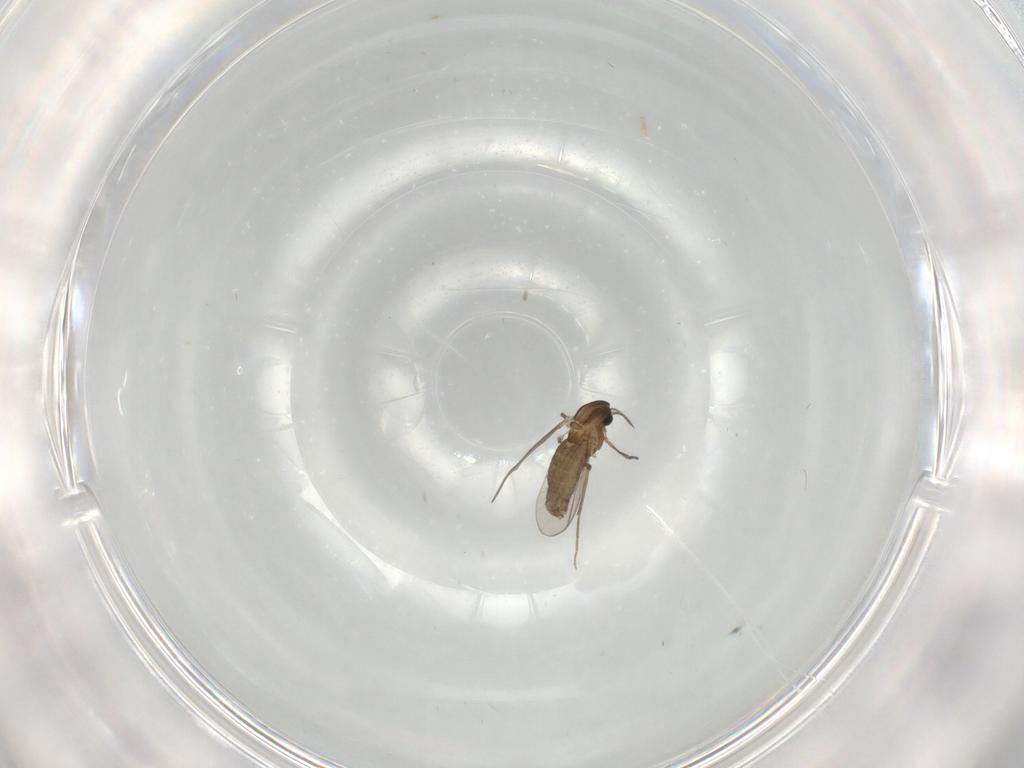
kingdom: Animalia
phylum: Arthropoda
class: Insecta
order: Diptera
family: Chironomidae
